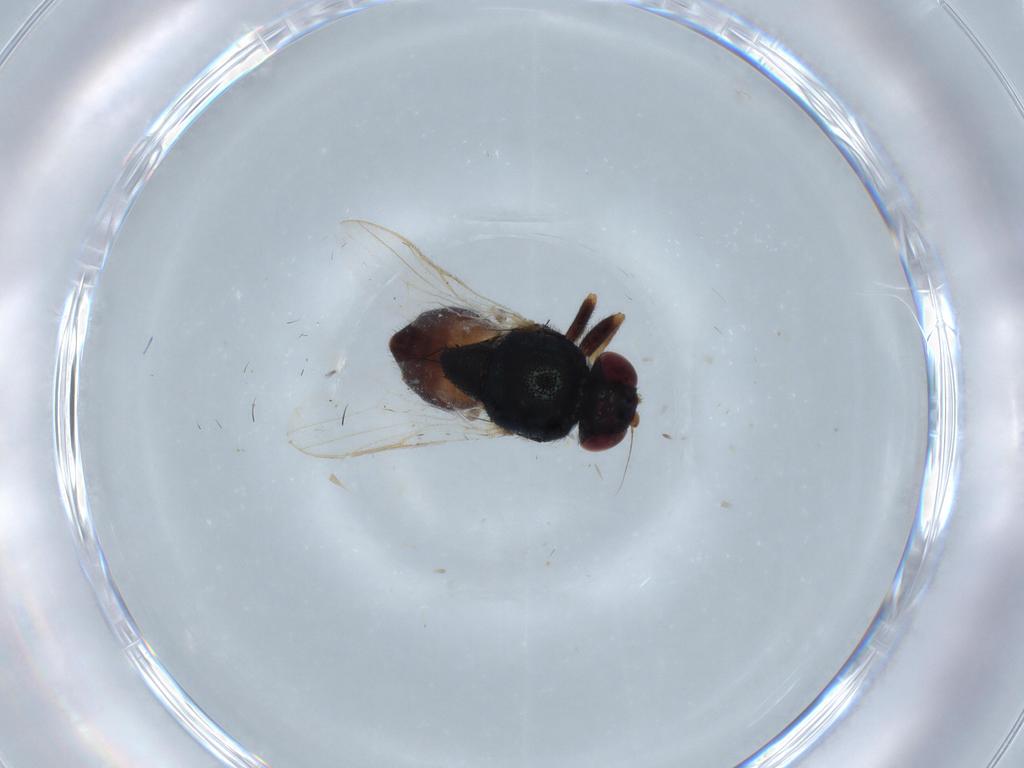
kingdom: Animalia
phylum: Arthropoda
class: Insecta
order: Diptera
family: Chloropidae
